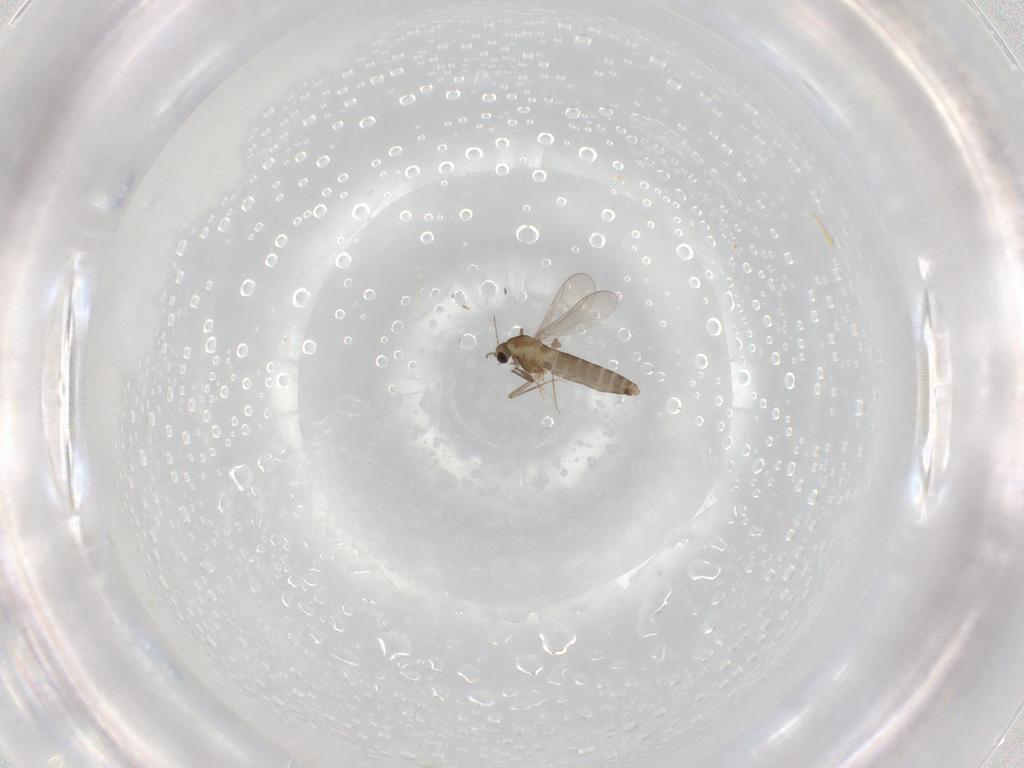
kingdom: Animalia
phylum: Arthropoda
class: Insecta
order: Diptera
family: Chironomidae
